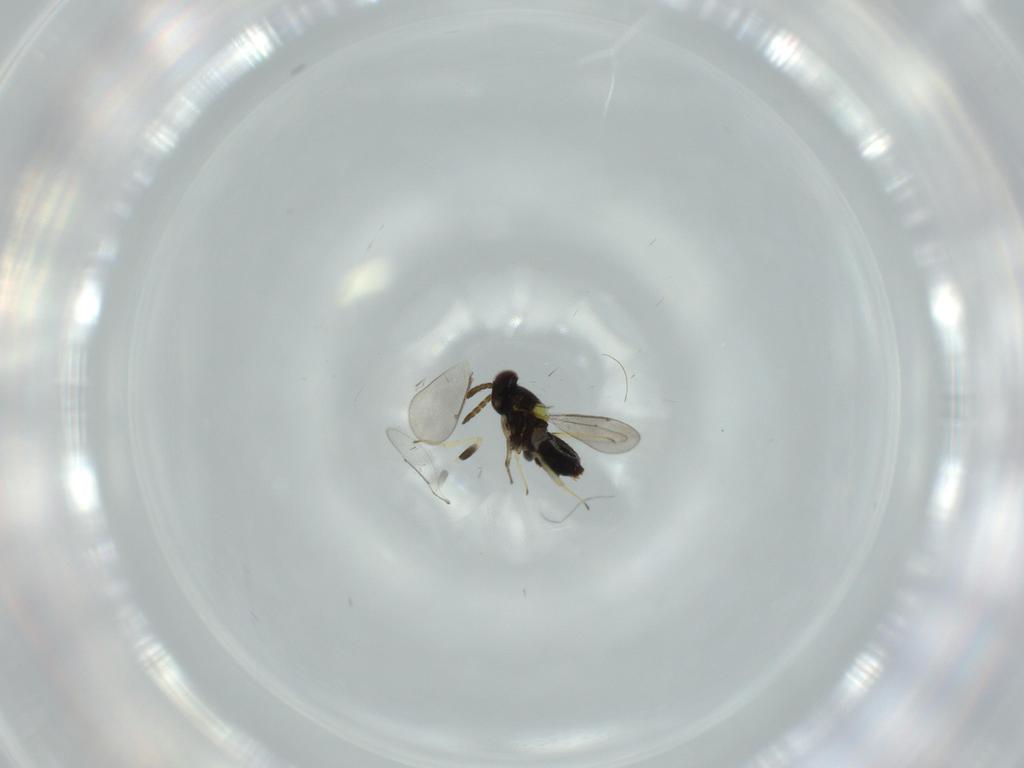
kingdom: Animalia
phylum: Arthropoda
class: Insecta
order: Hymenoptera
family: Aphelinidae
